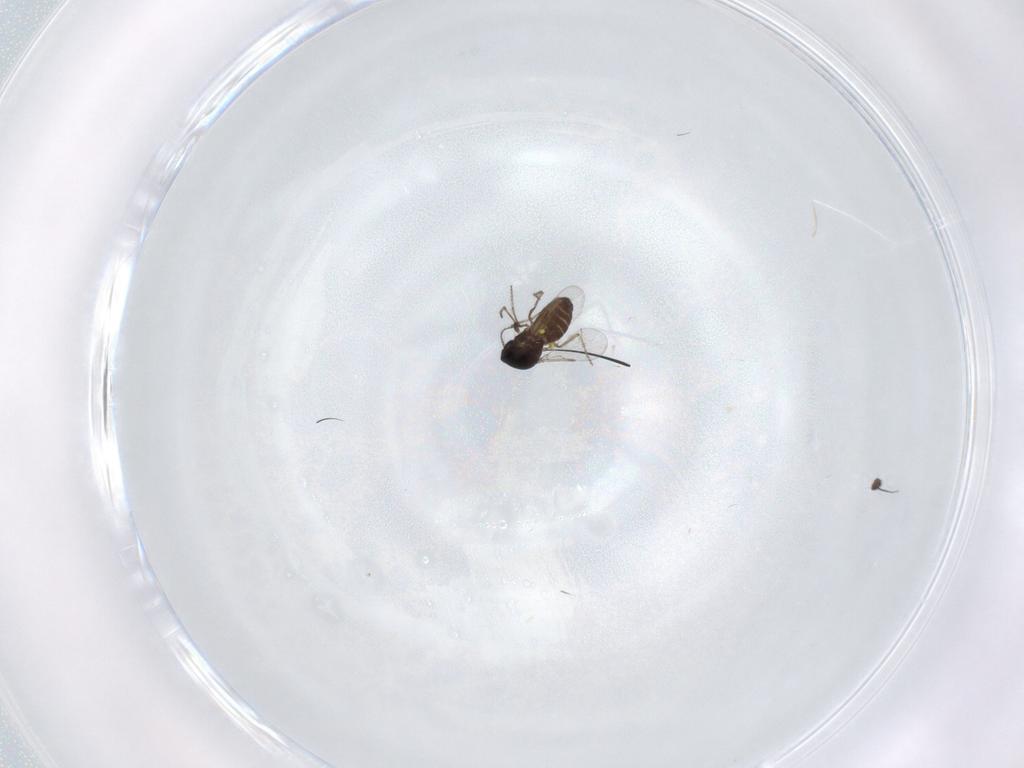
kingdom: Animalia
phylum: Arthropoda
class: Insecta
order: Diptera
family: Ceratopogonidae
